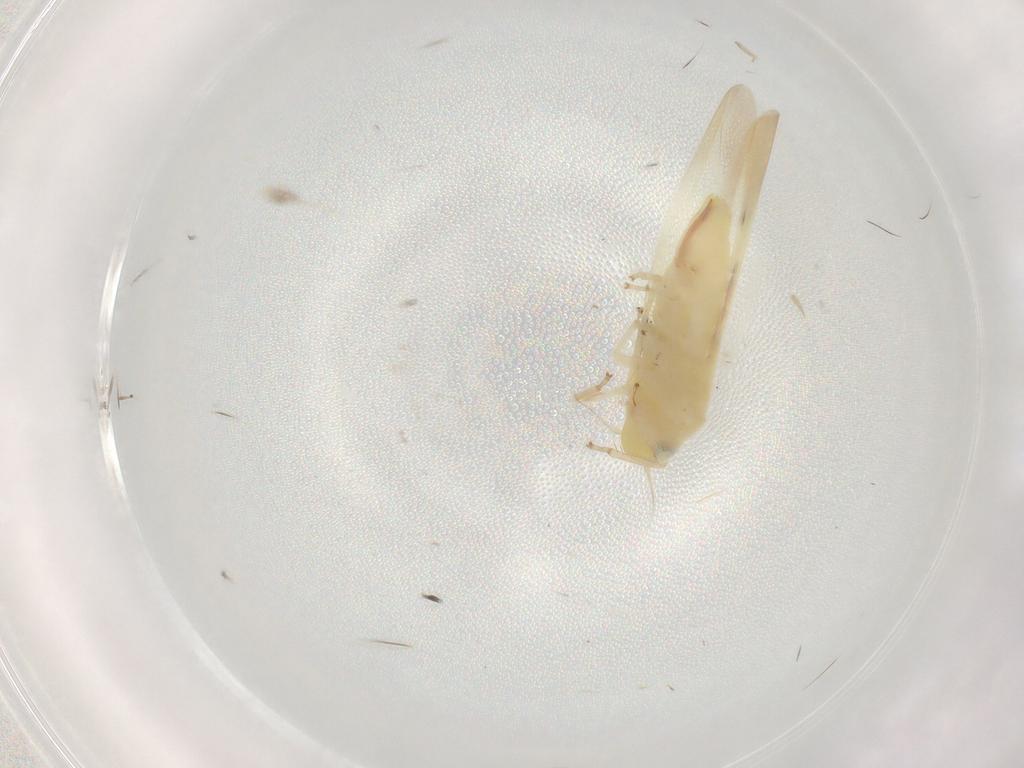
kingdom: Animalia
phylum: Arthropoda
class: Insecta
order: Hemiptera
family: Cicadellidae
